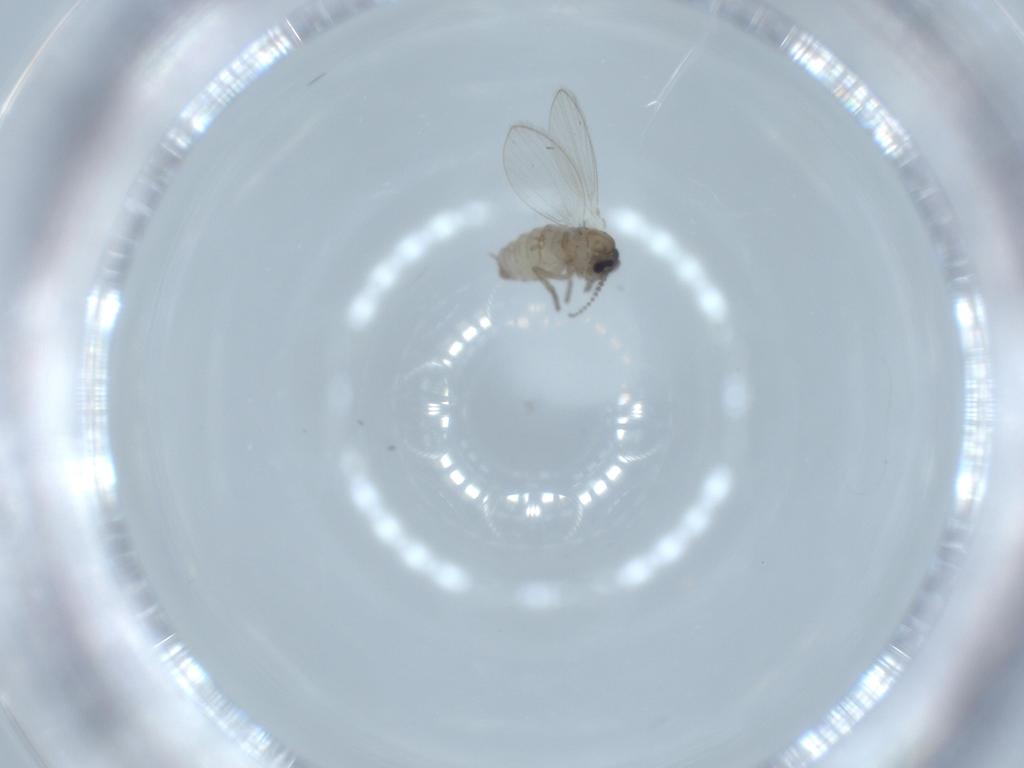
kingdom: Animalia
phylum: Arthropoda
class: Insecta
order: Diptera
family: Psychodidae
